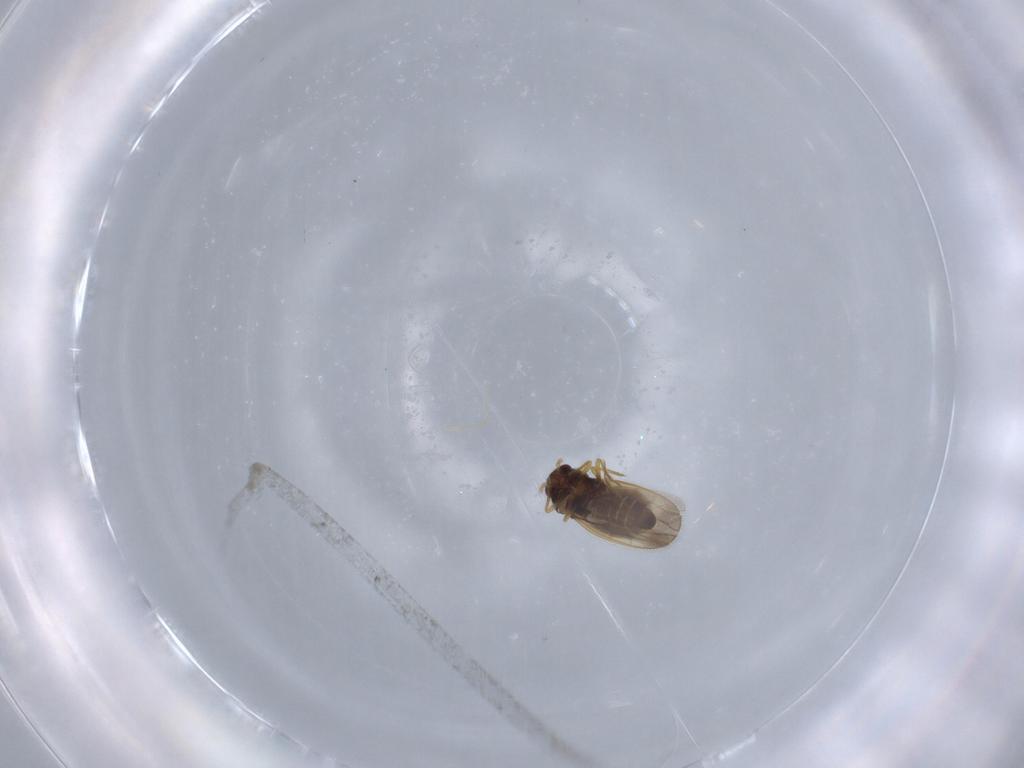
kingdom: Animalia
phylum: Arthropoda
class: Insecta
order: Hemiptera
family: Schizopteridae
